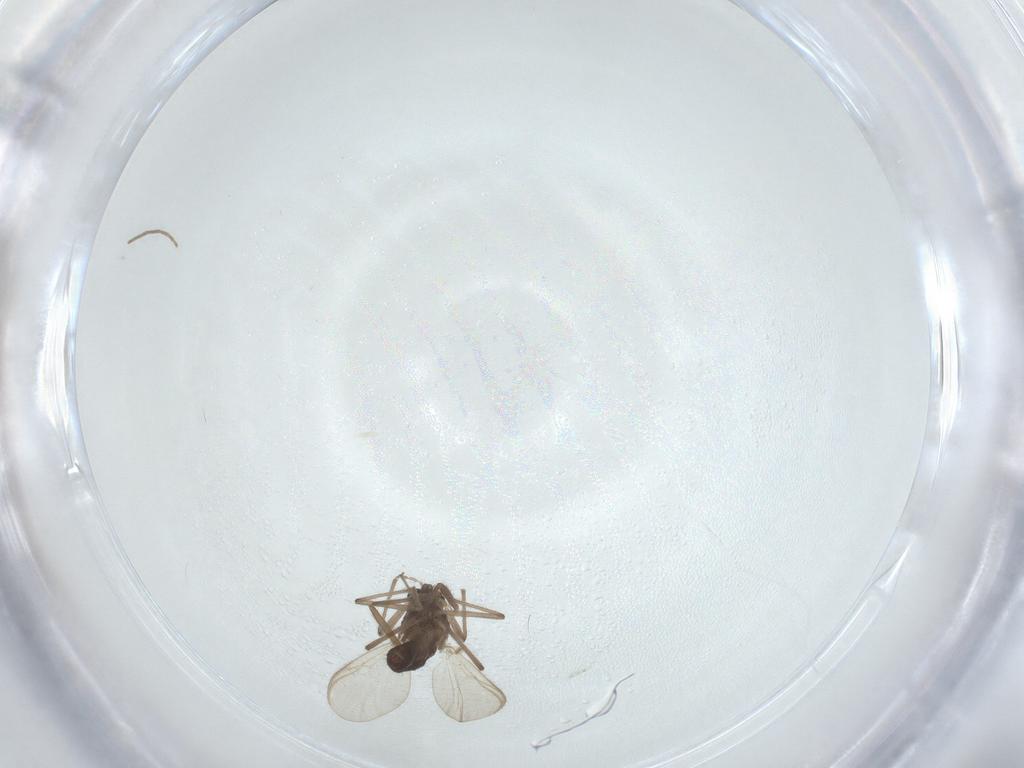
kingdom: Animalia
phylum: Arthropoda
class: Insecta
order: Diptera
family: Chironomidae
